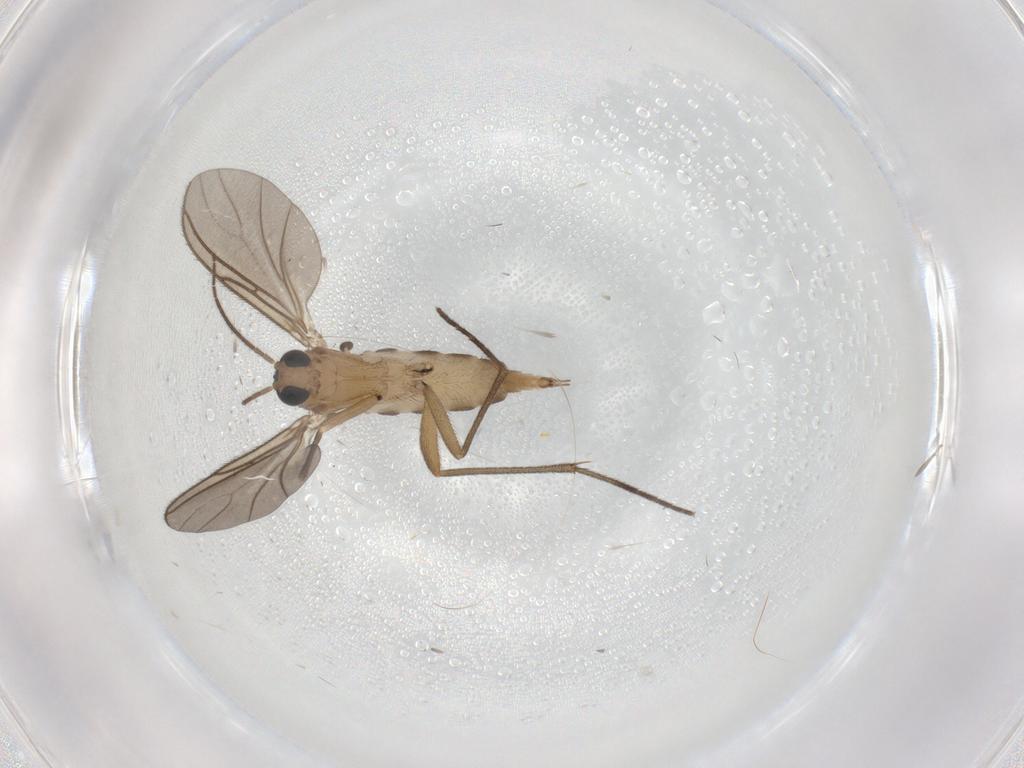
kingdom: Animalia
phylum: Arthropoda
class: Insecta
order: Diptera
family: Sciaridae
